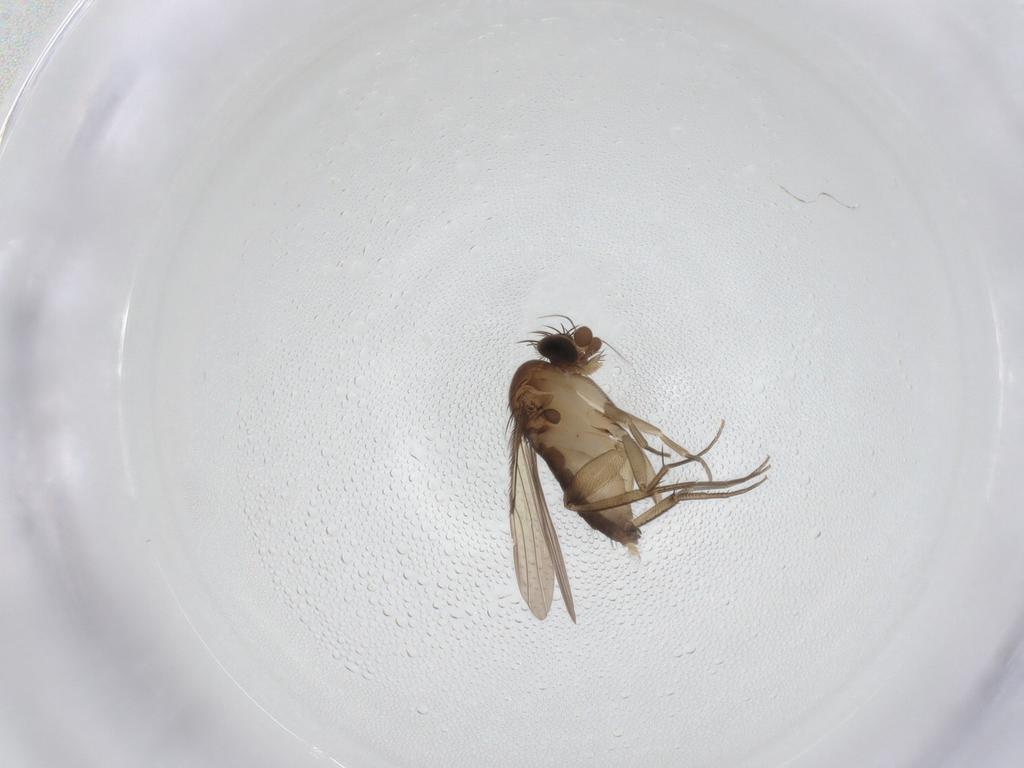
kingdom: Animalia
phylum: Arthropoda
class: Insecta
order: Diptera
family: Phoridae
